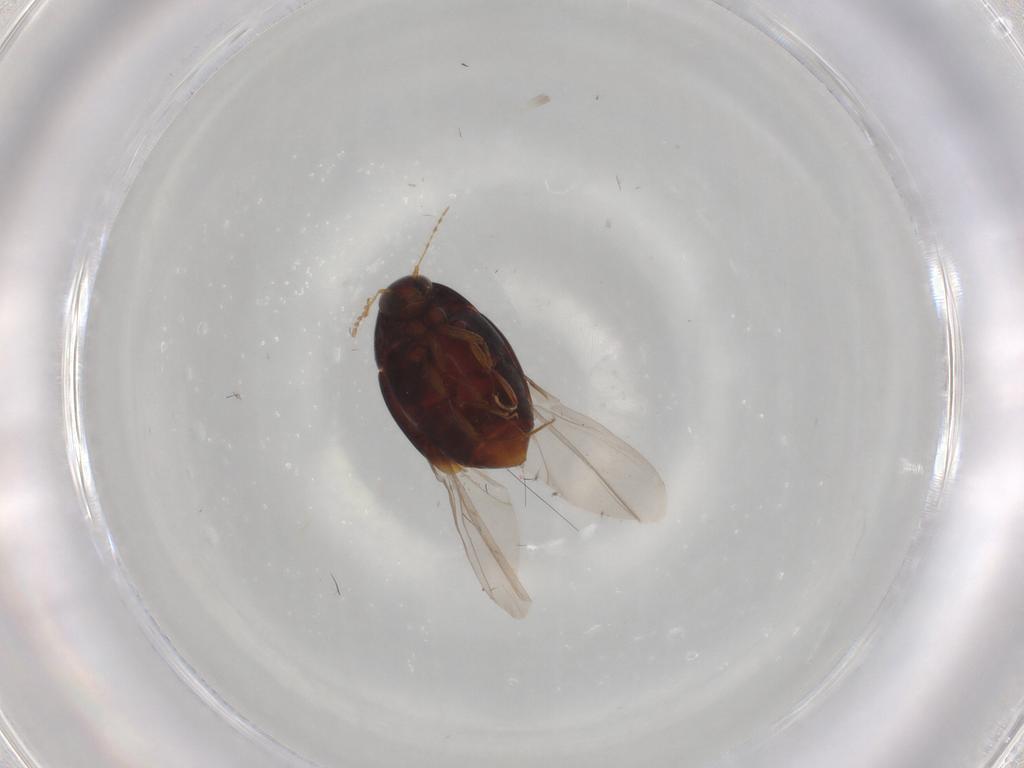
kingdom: Animalia
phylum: Arthropoda
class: Insecta
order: Coleoptera
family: Staphylinidae
